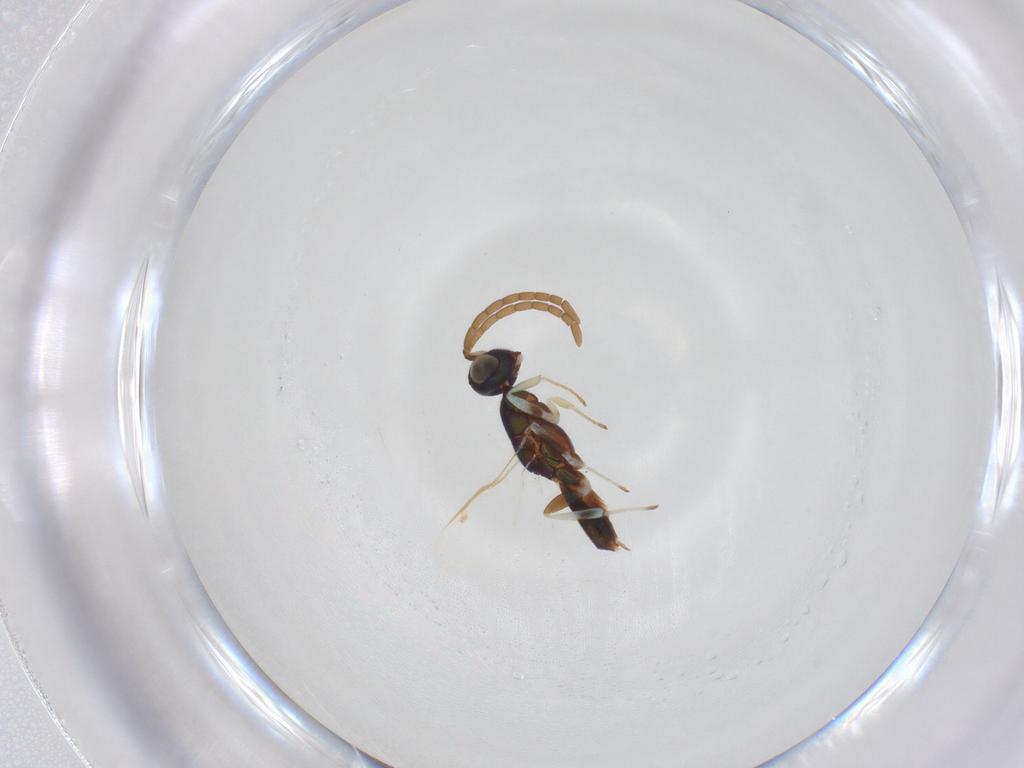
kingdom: Animalia
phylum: Arthropoda
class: Insecta
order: Hymenoptera
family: Eupelmidae
